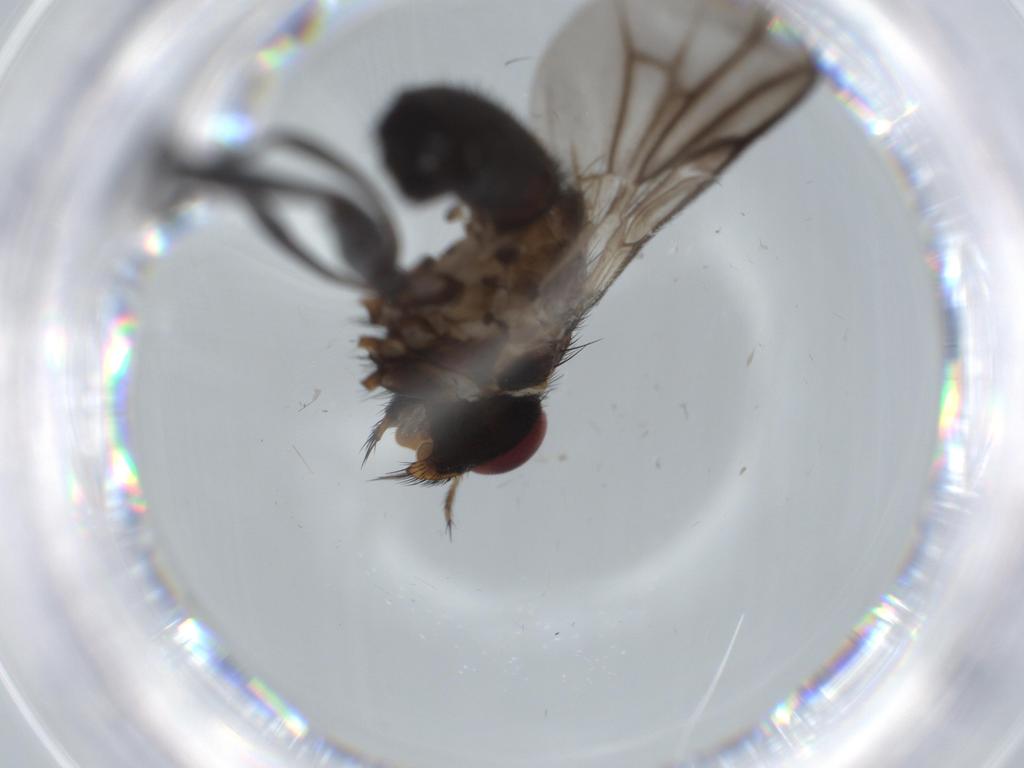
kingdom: Animalia
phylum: Arthropoda
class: Insecta
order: Diptera
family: Calliphoridae
